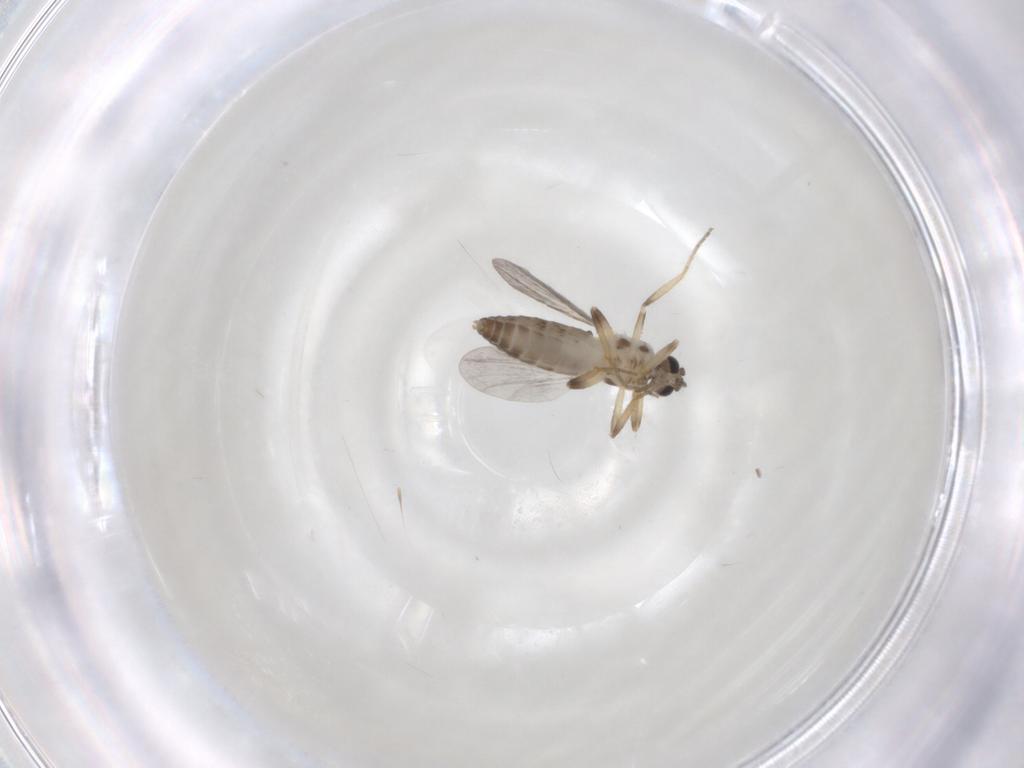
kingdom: Animalia
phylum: Arthropoda
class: Insecta
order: Diptera
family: Ceratopogonidae
